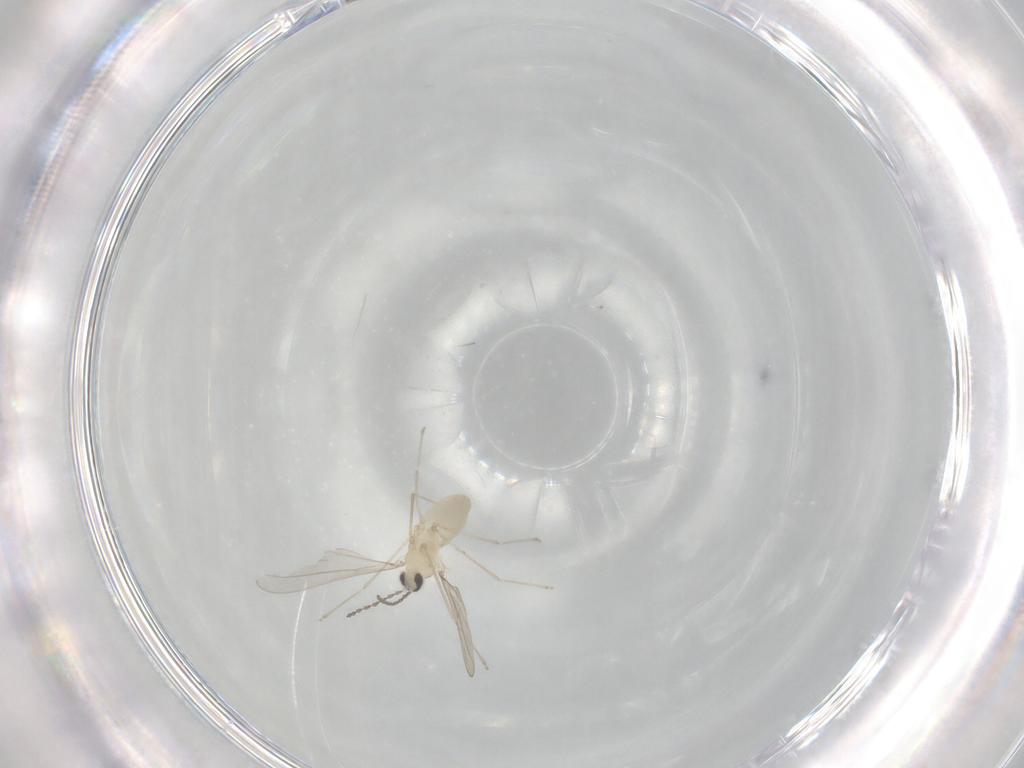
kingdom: Animalia
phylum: Arthropoda
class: Insecta
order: Diptera
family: Cecidomyiidae
